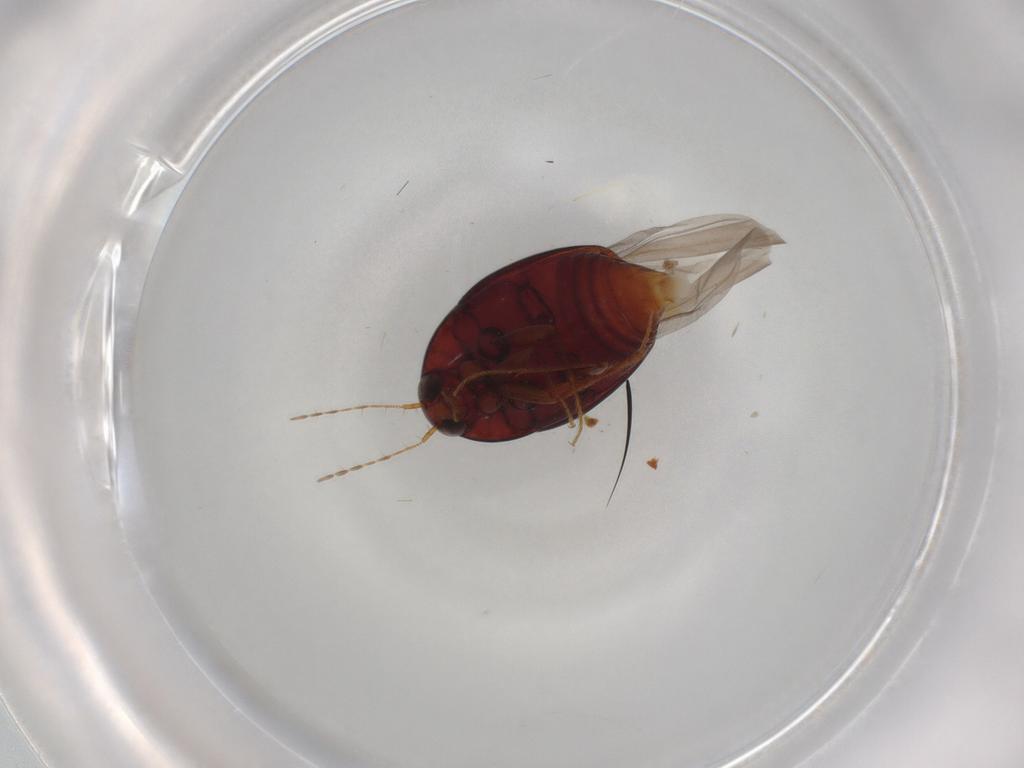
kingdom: Animalia
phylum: Arthropoda
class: Insecta
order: Coleoptera
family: Staphylinidae
